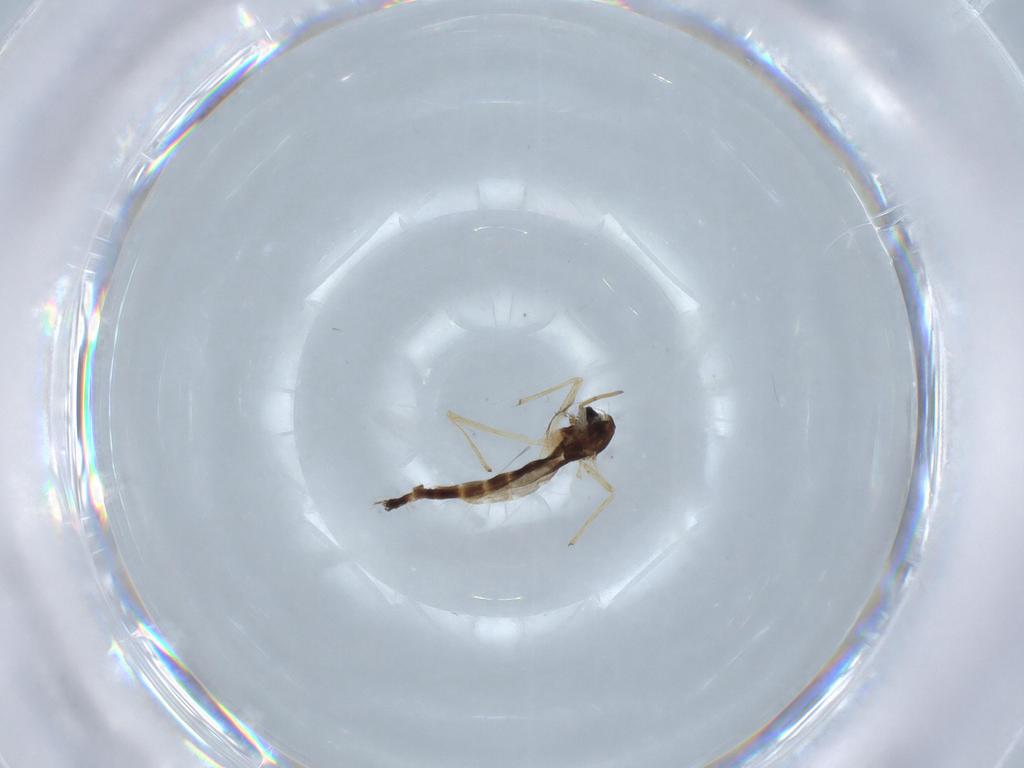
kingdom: Animalia
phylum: Arthropoda
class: Insecta
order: Diptera
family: Chironomidae
